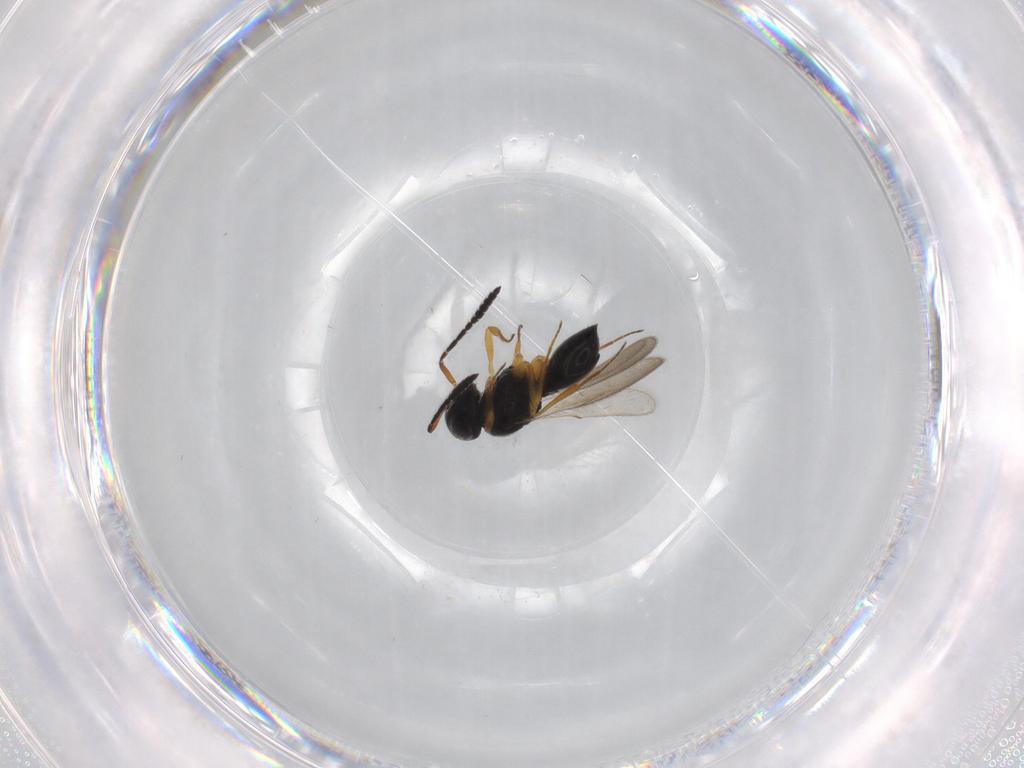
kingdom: Animalia
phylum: Arthropoda
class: Insecta
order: Hymenoptera
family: Scelionidae
